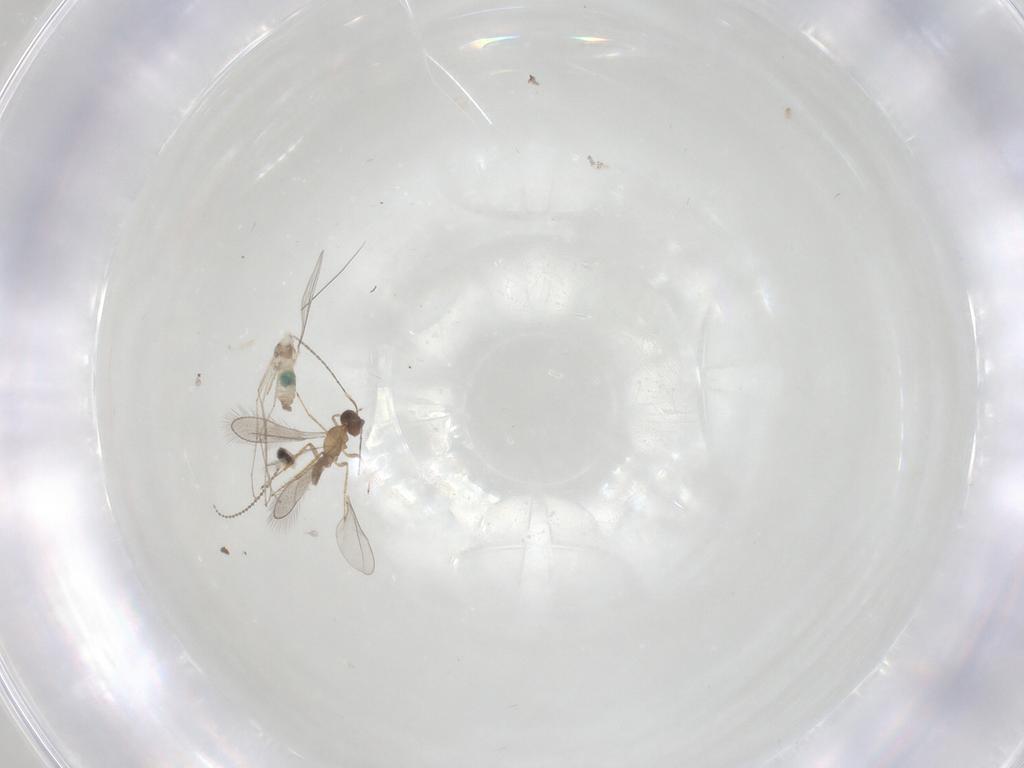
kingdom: Animalia
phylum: Arthropoda
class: Insecta
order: Diptera
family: Cecidomyiidae
